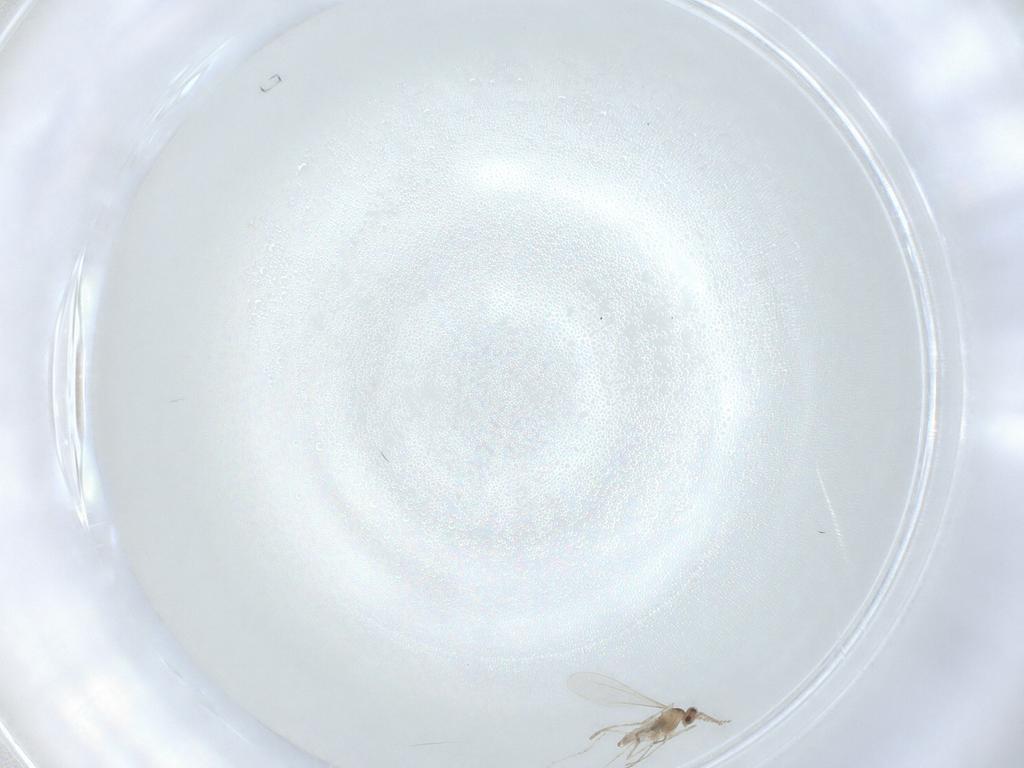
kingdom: Animalia
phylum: Arthropoda
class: Insecta
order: Diptera
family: Cecidomyiidae
